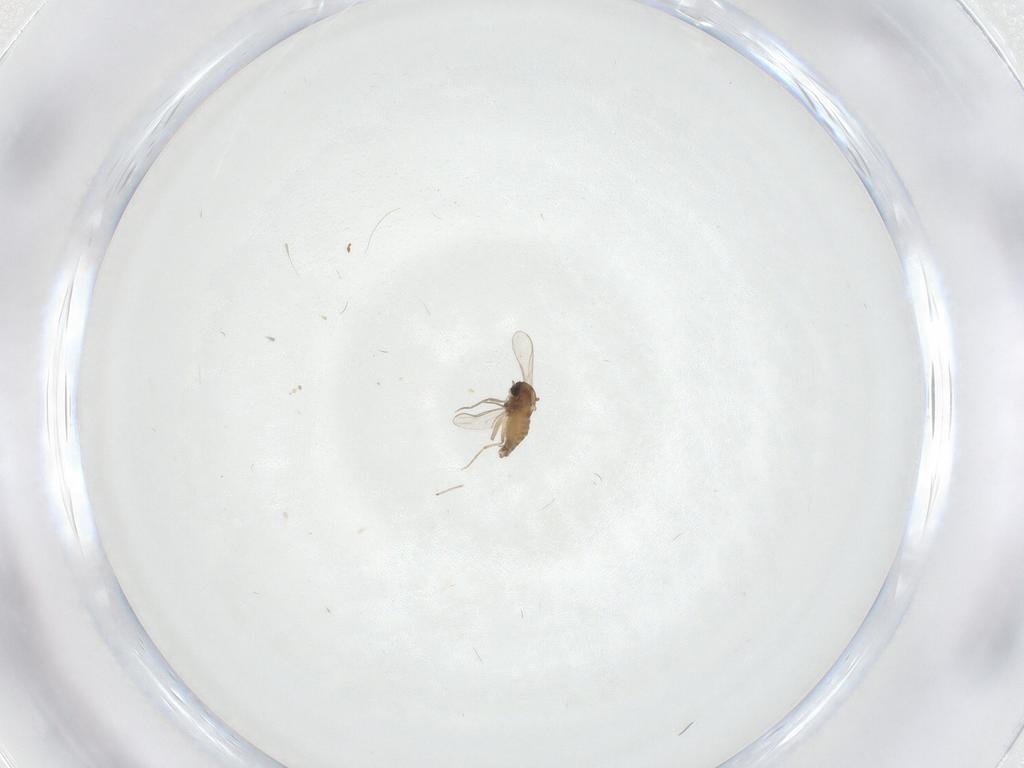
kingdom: Animalia
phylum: Arthropoda
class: Insecta
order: Diptera
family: Chironomidae
